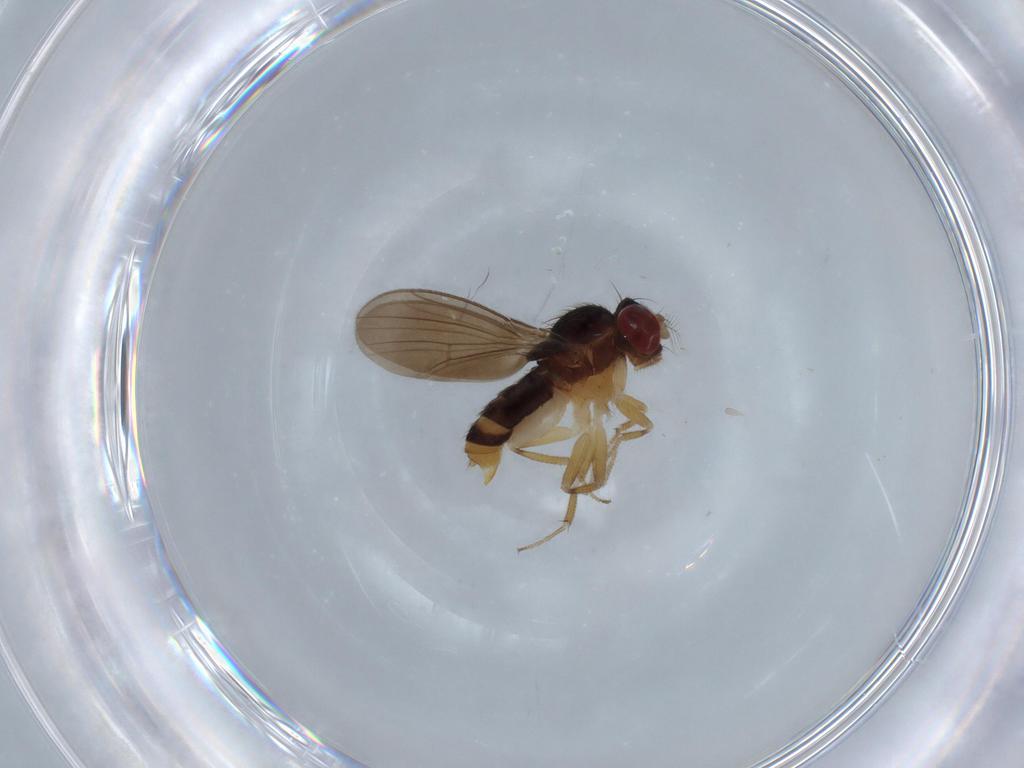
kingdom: Animalia
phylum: Arthropoda
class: Insecta
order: Diptera
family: Drosophilidae
